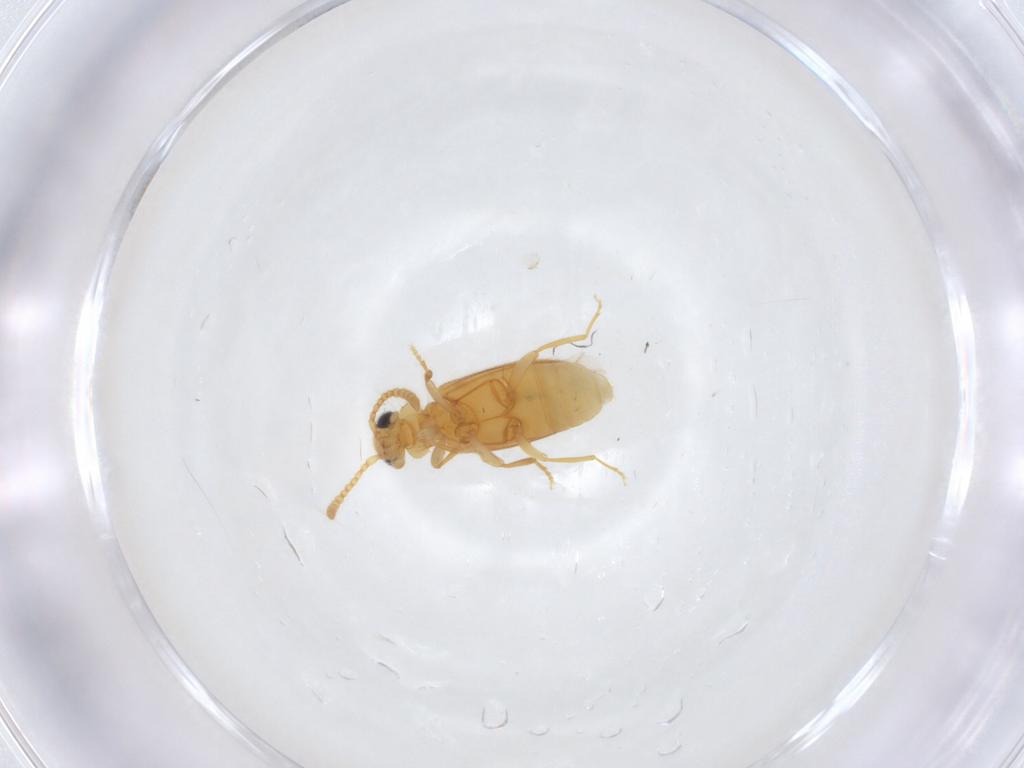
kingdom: Animalia
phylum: Arthropoda
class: Insecta
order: Coleoptera
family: Anthicidae
